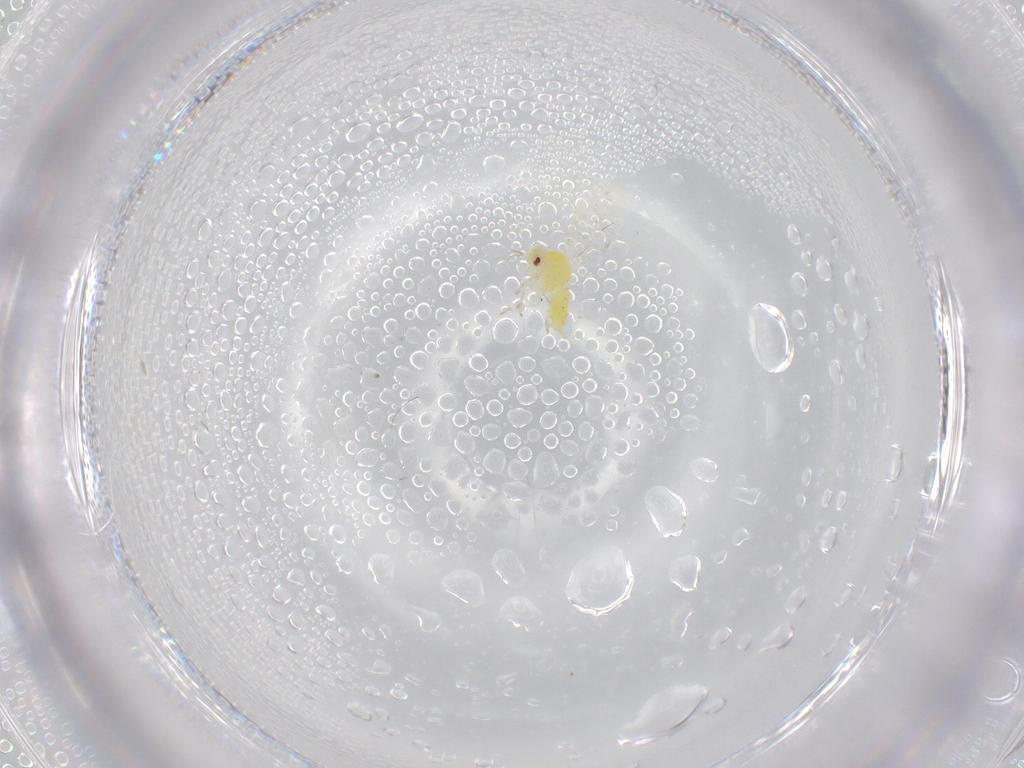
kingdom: Animalia
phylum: Arthropoda
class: Insecta
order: Hemiptera
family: Aleyrodidae
